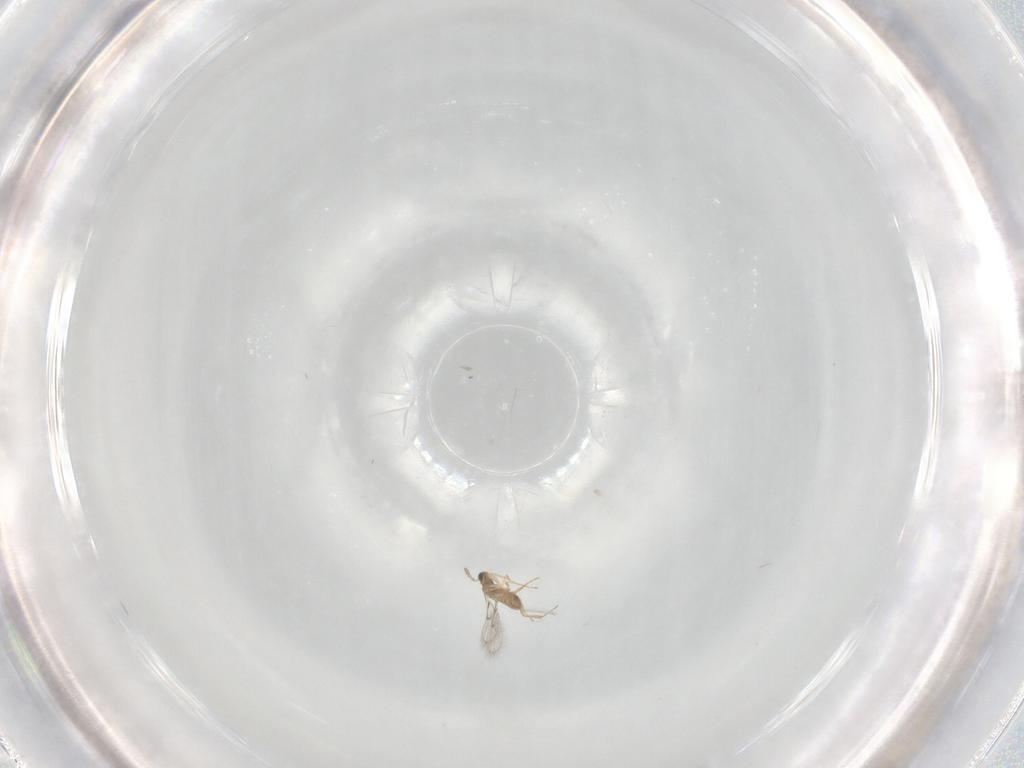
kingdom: Animalia
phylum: Arthropoda
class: Insecta
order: Hymenoptera
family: Trichogrammatidae
